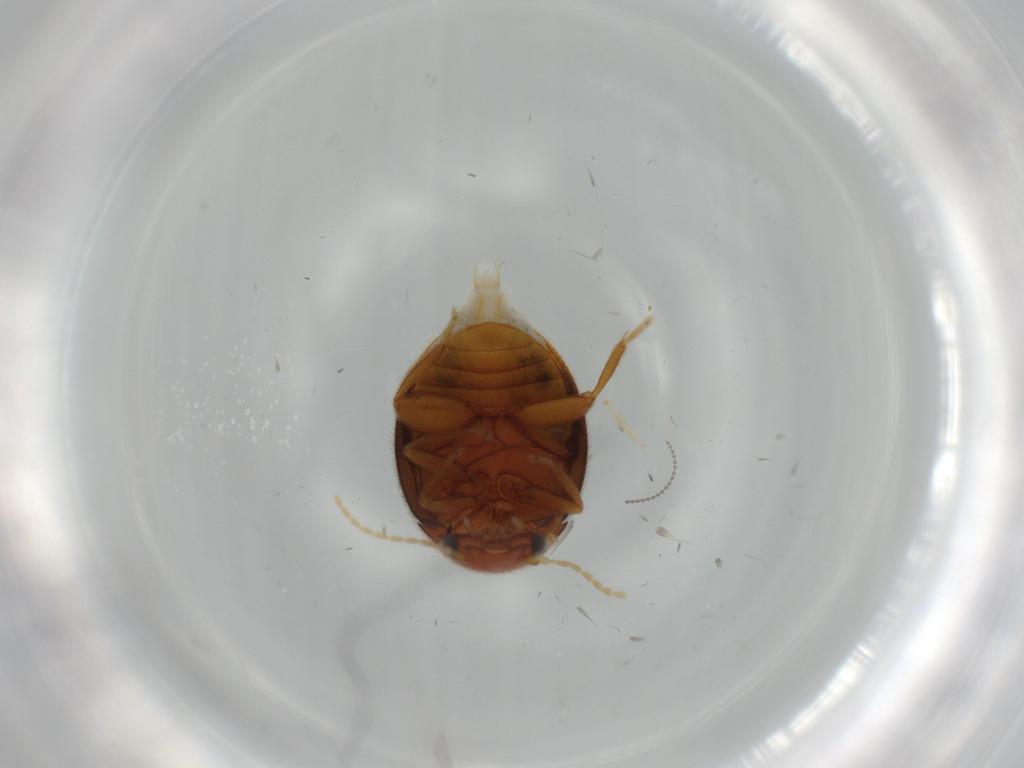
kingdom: Animalia
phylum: Arthropoda
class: Insecta
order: Coleoptera
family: Scirtidae
